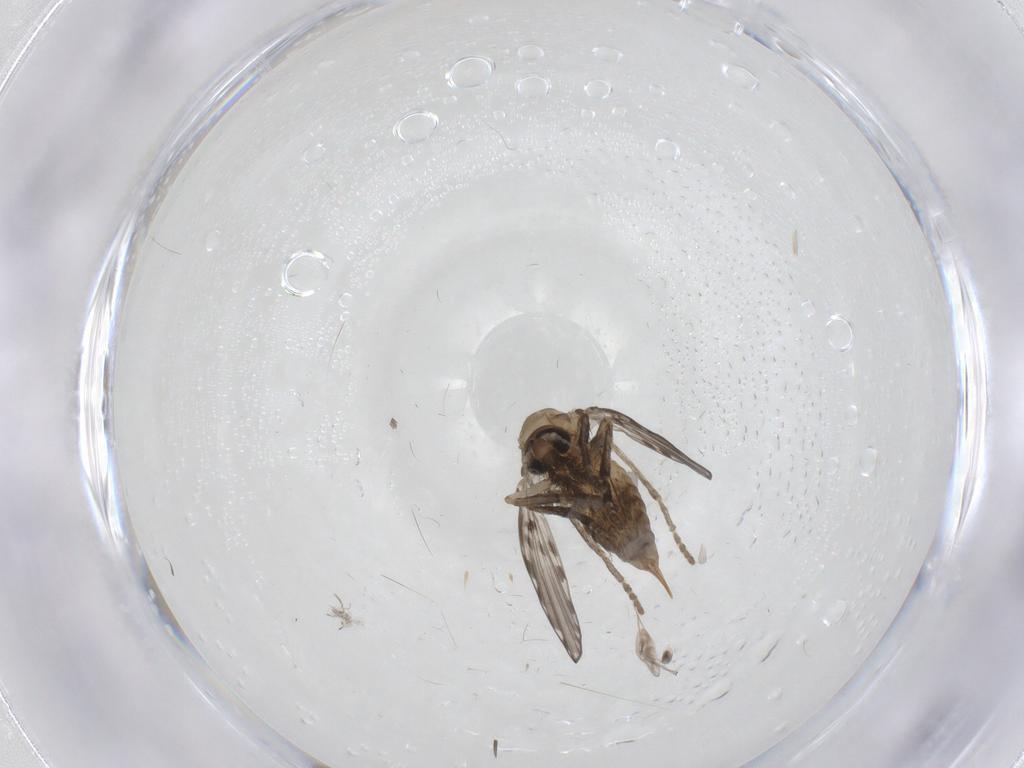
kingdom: Animalia
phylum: Arthropoda
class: Insecta
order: Diptera
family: Psychodidae
